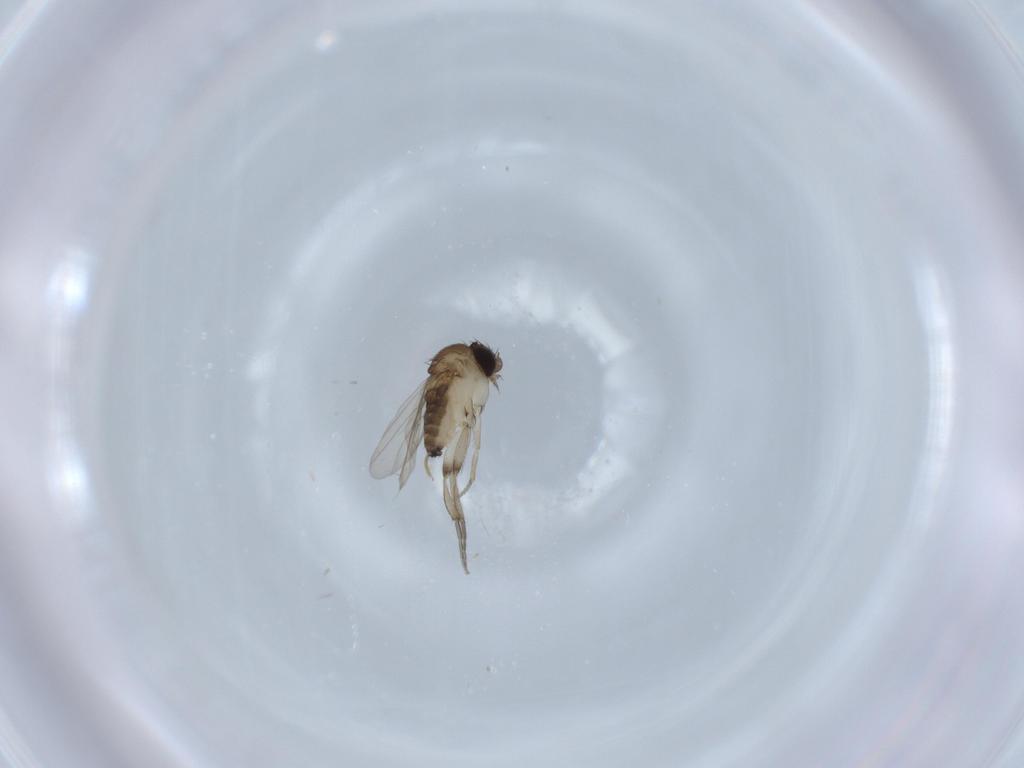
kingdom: Animalia
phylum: Arthropoda
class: Insecta
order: Diptera
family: Phoridae
